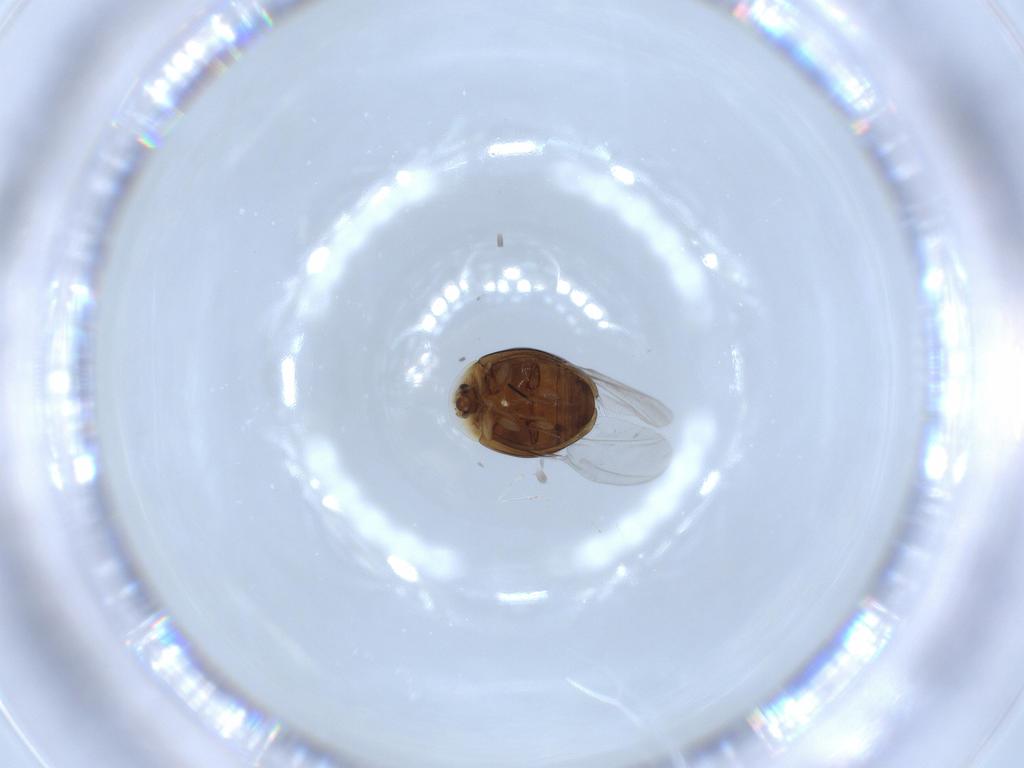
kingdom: Animalia
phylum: Arthropoda
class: Insecta
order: Coleoptera
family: Corylophidae
